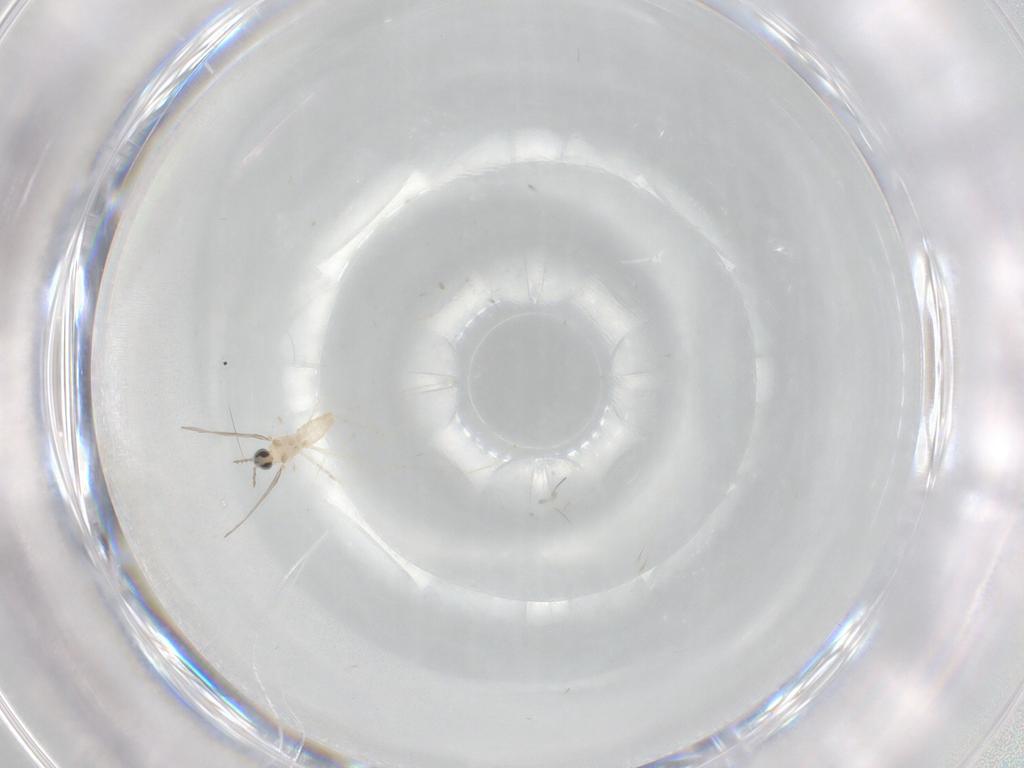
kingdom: Animalia
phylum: Arthropoda
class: Insecta
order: Diptera
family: Cecidomyiidae
